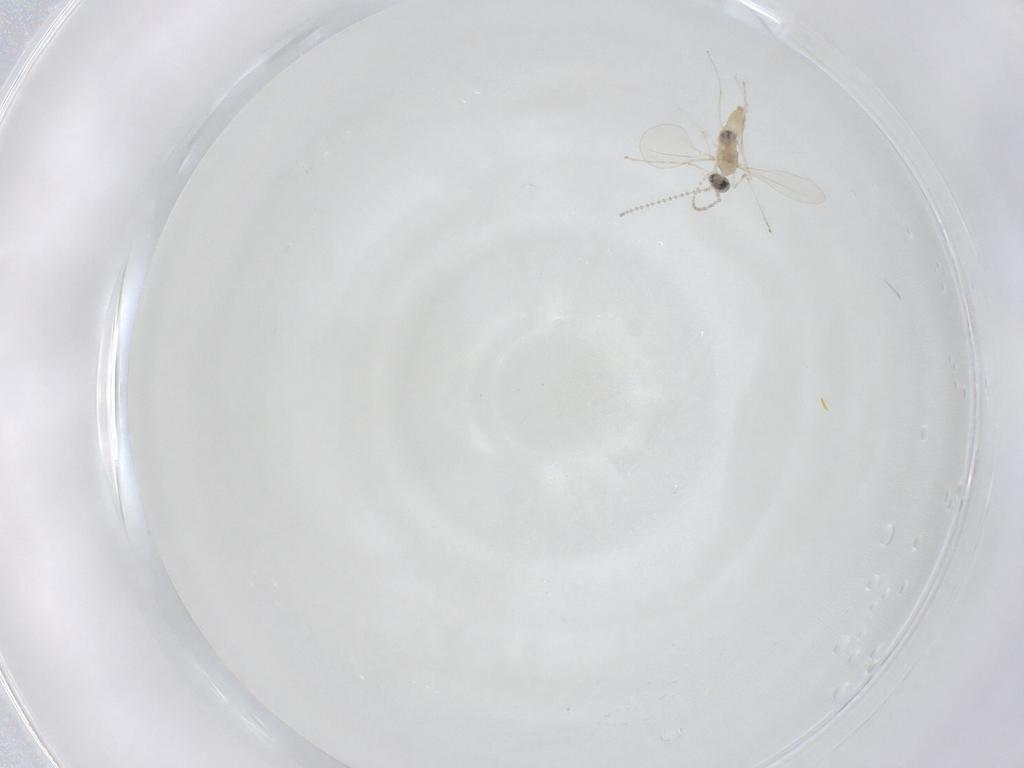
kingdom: Animalia
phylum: Arthropoda
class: Insecta
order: Diptera
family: Cecidomyiidae
